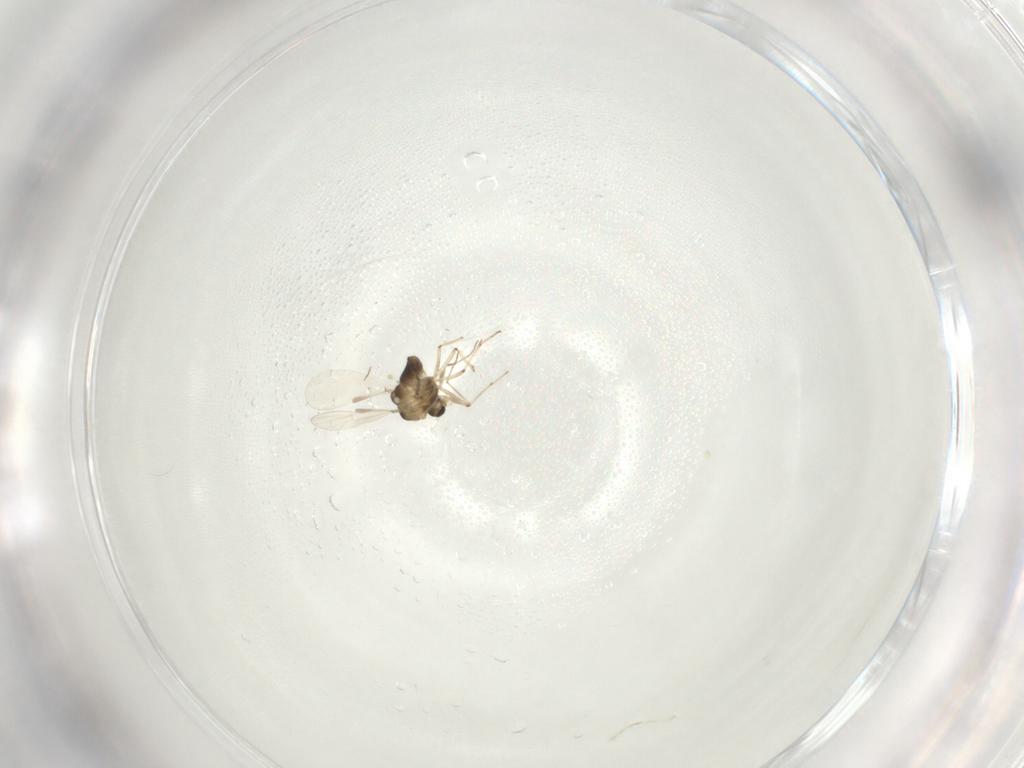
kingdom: Animalia
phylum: Arthropoda
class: Insecta
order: Diptera
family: Chironomidae
